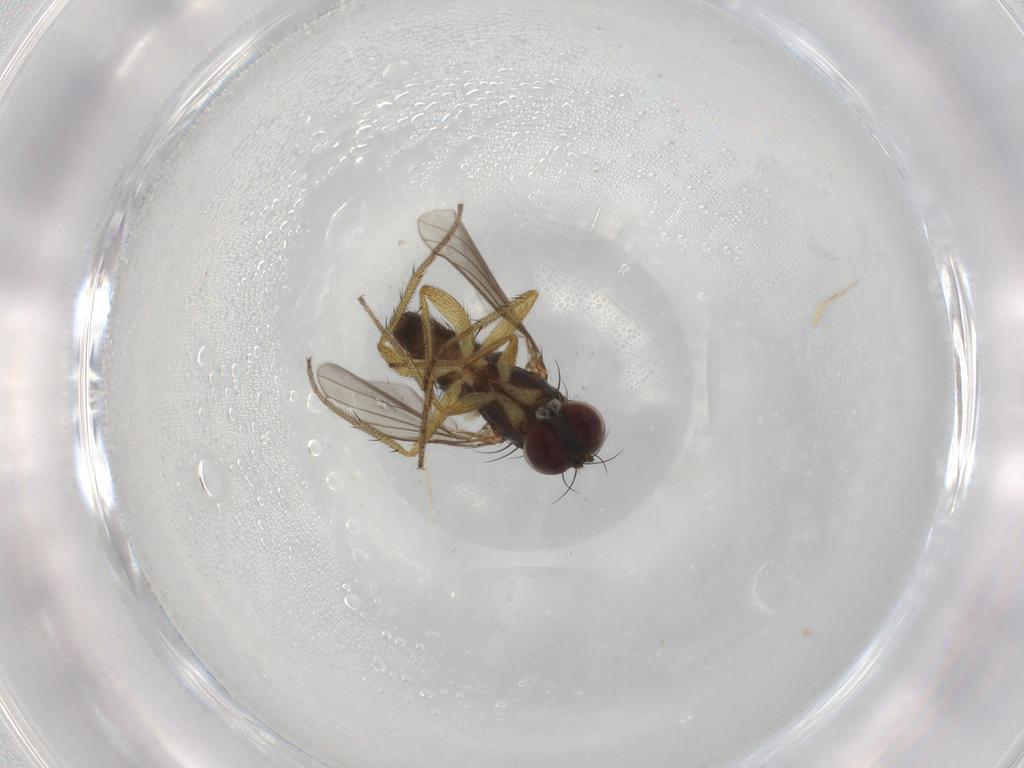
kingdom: Animalia
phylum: Arthropoda
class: Insecta
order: Diptera
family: Dolichopodidae
